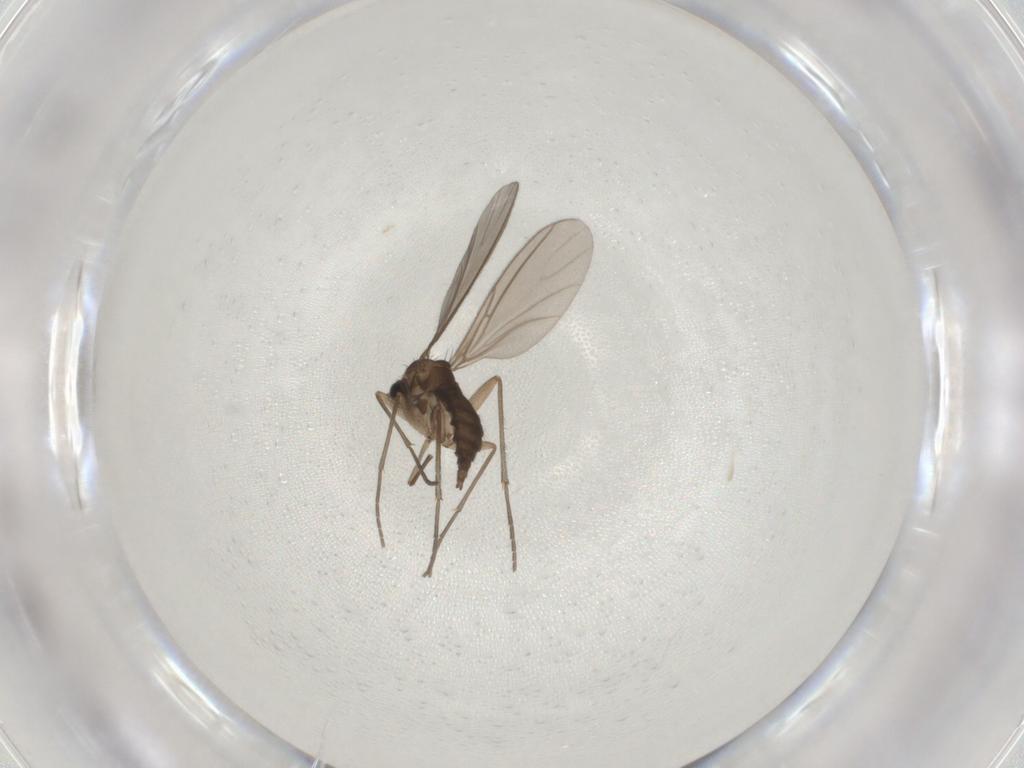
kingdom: Animalia
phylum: Arthropoda
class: Insecta
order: Diptera
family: Sciaridae
